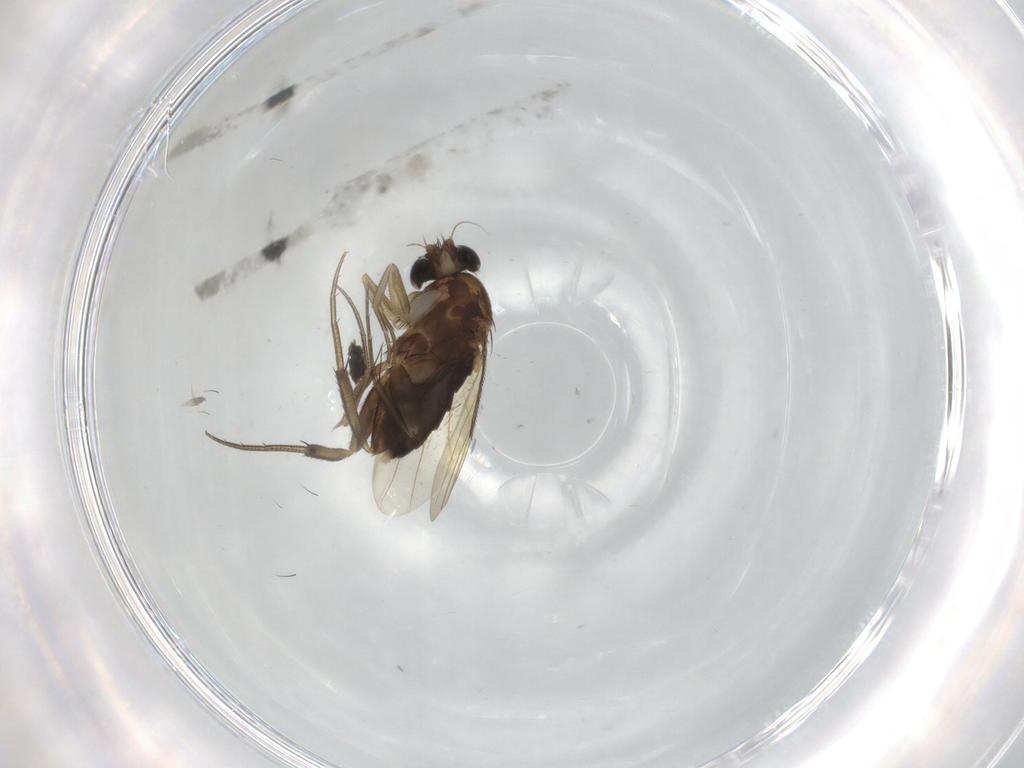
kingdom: Animalia
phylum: Arthropoda
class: Insecta
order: Diptera
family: Phoridae
